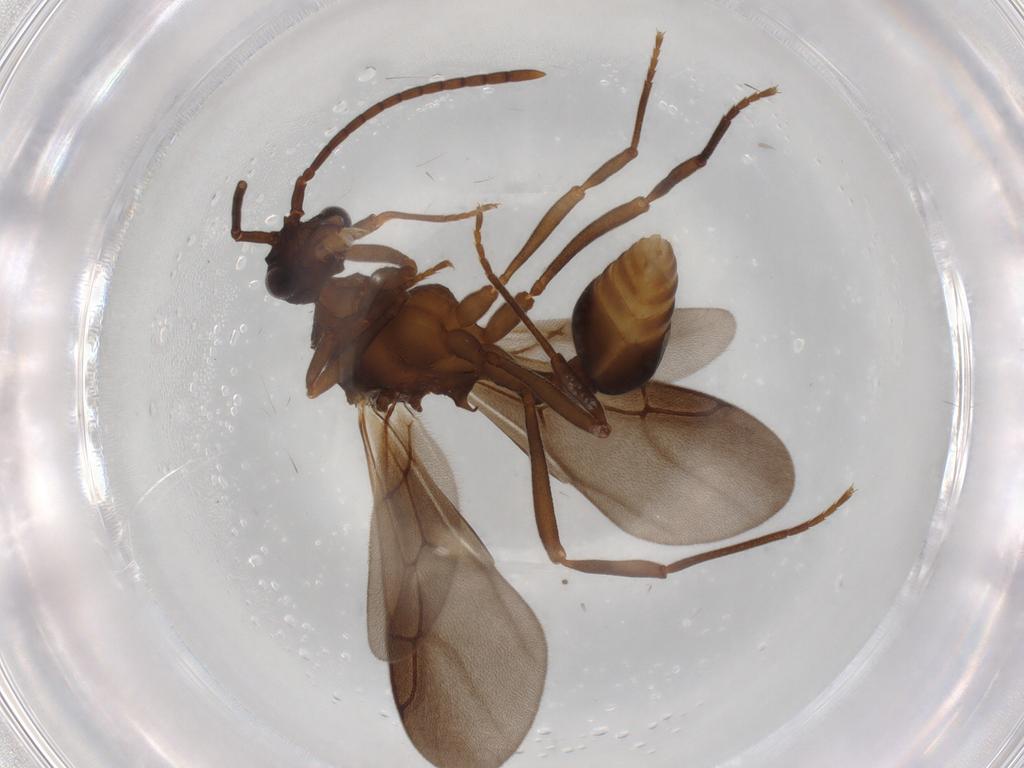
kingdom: Animalia
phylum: Arthropoda
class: Insecta
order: Hymenoptera
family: Formicidae
